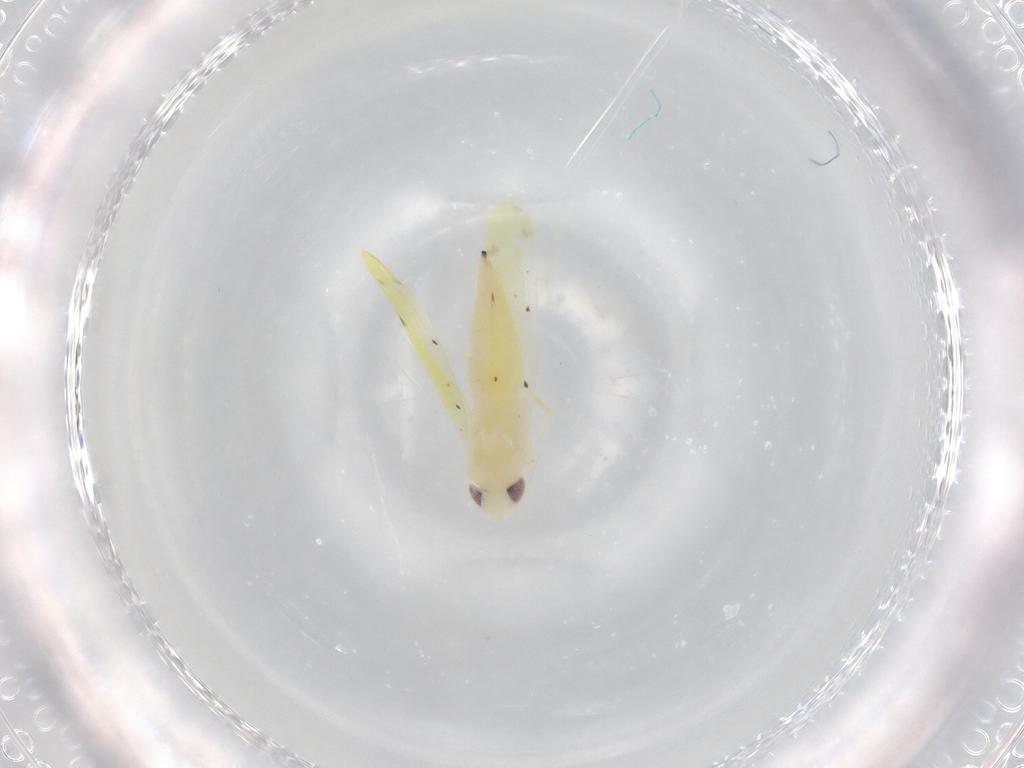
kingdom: Animalia
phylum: Arthropoda
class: Insecta
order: Hemiptera
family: Cicadellidae
